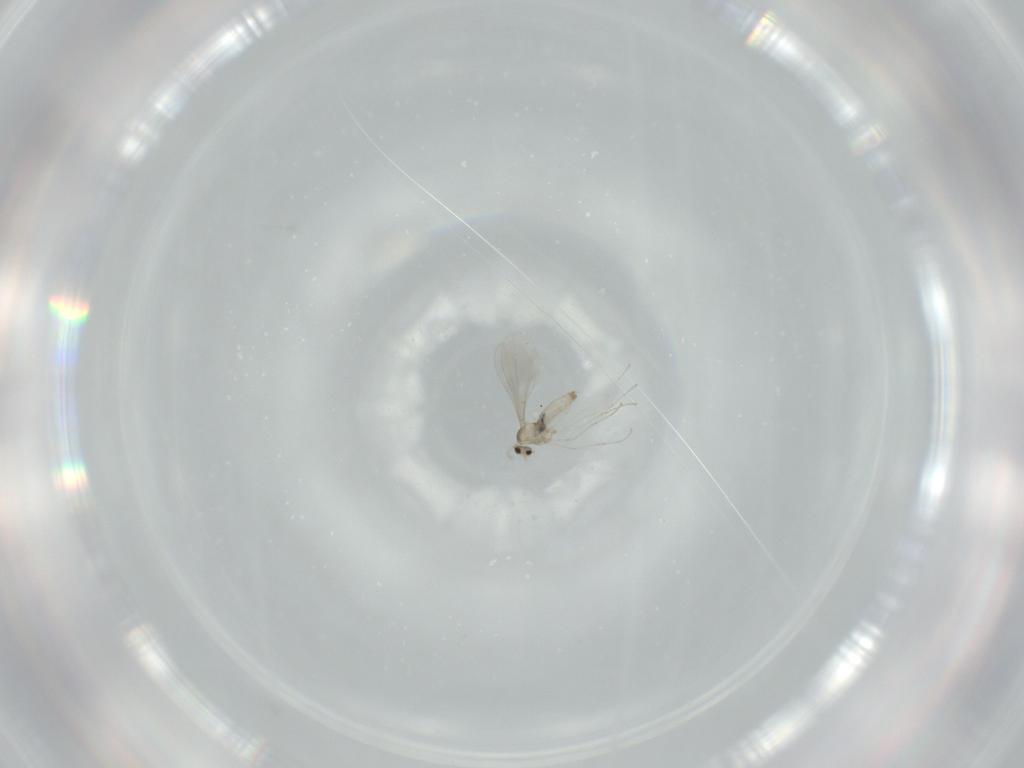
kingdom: Animalia
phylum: Arthropoda
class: Insecta
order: Diptera
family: Cecidomyiidae
